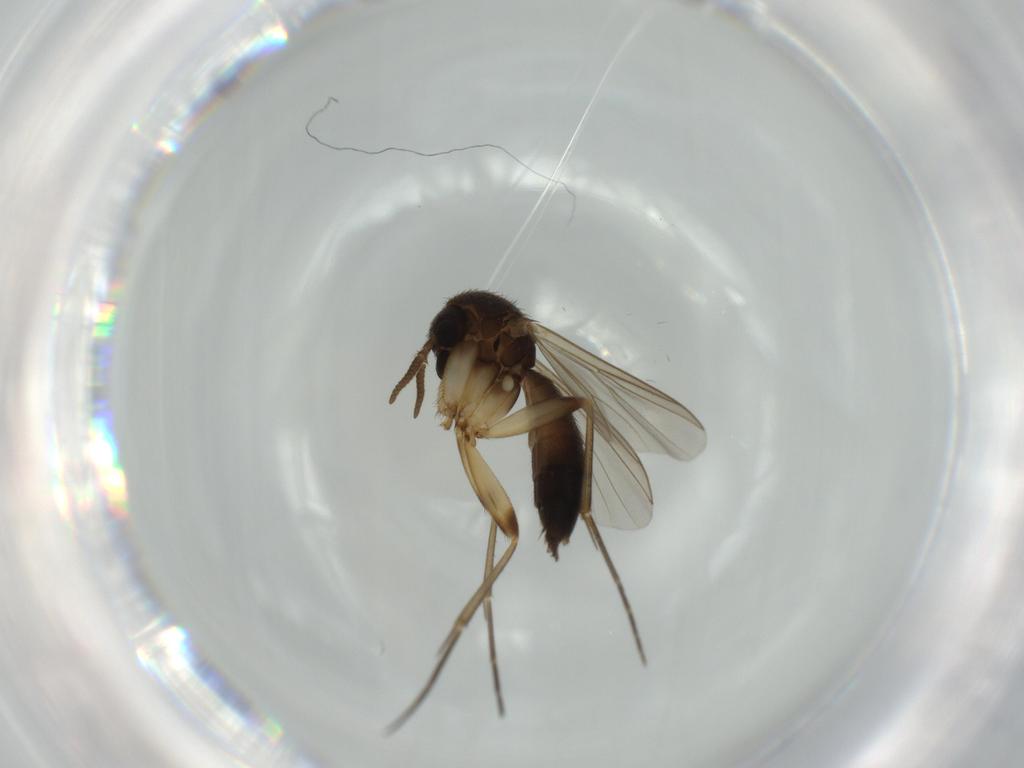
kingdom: Animalia
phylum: Arthropoda
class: Insecta
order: Diptera
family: Mycetophilidae
